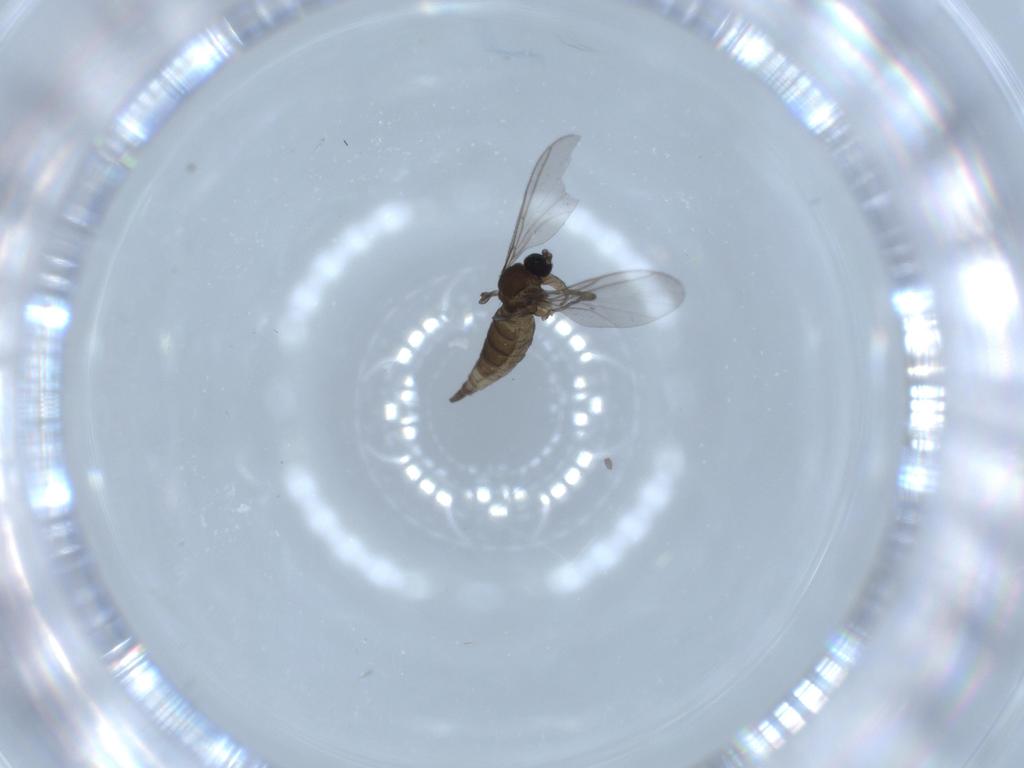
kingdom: Animalia
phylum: Arthropoda
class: Insecta
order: Diptera
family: Sciaridae
